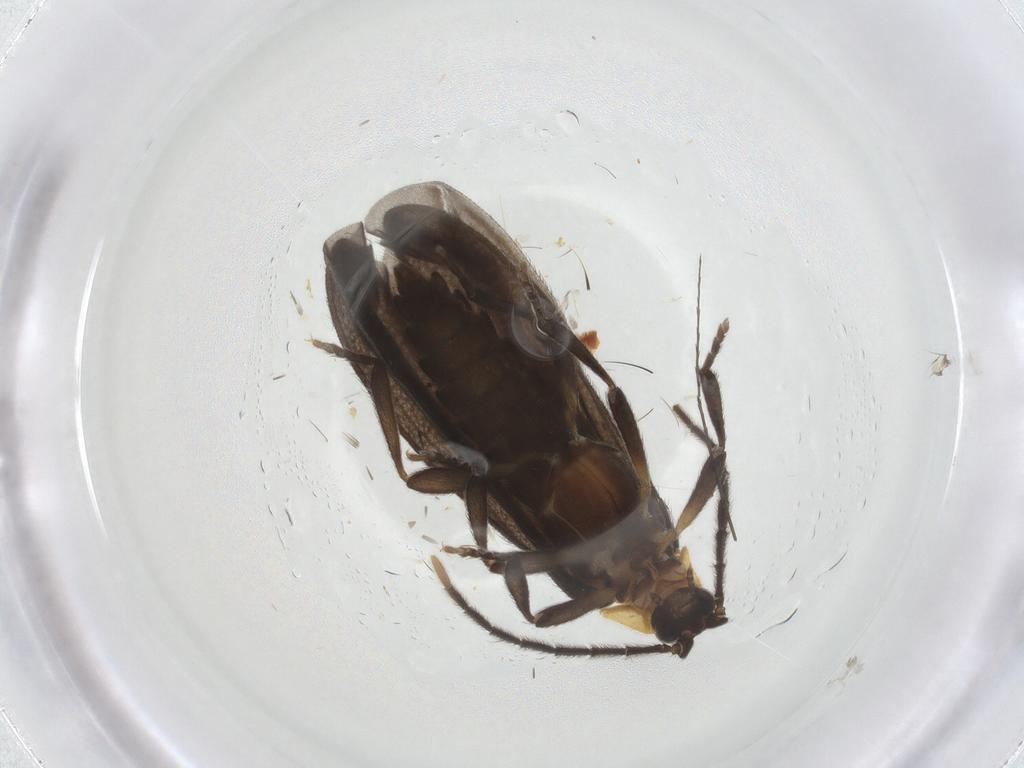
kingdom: Animalia
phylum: Arthropoda
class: Insecta
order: Coleoptera
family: Lycidae
